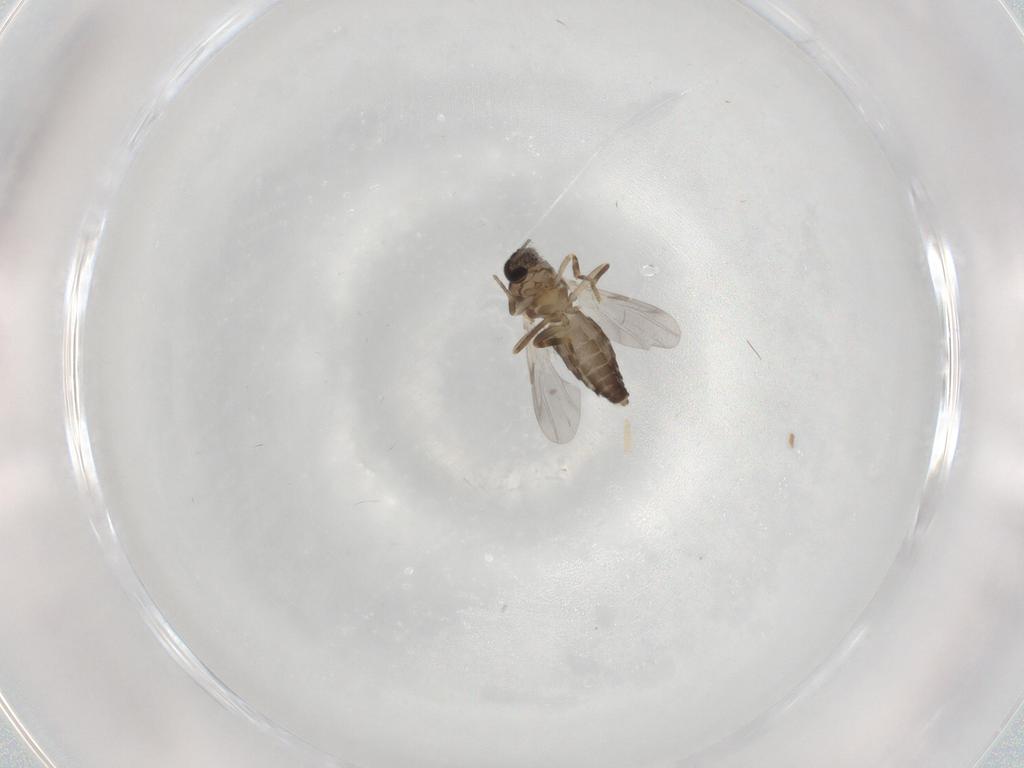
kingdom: Animalia
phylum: Arthropoda
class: Insecta
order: Diptera
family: Ceratopogonidae
